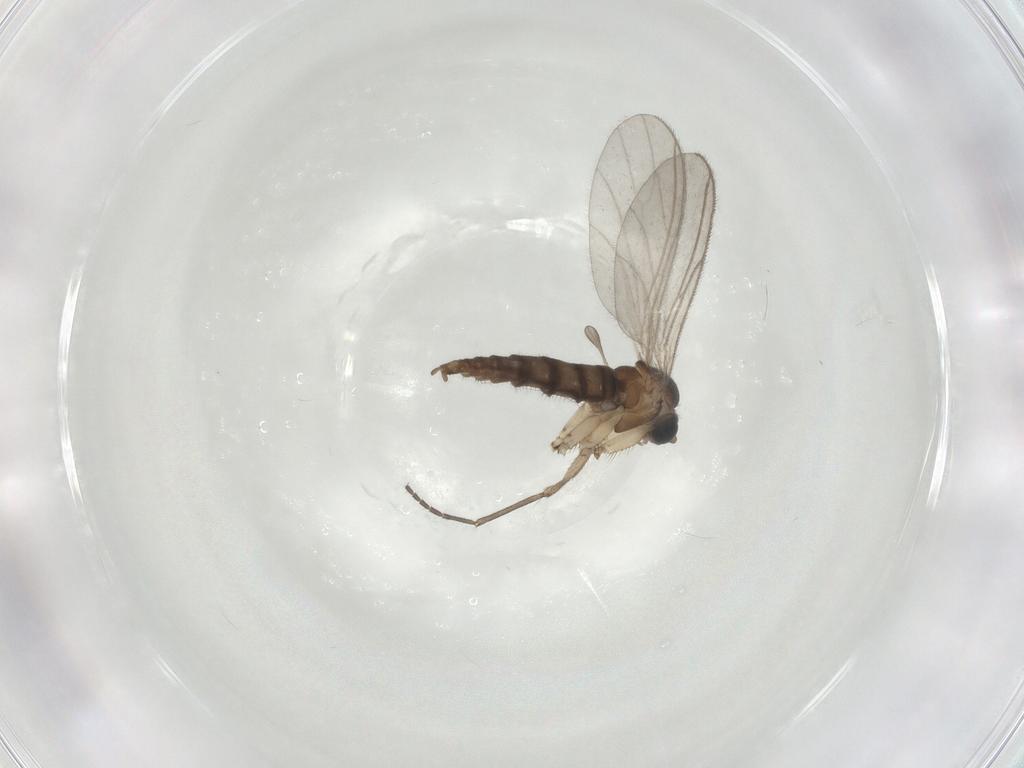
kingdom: Animalia
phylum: Arthropoda
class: Insecta
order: Diptera
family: Sciaridae
